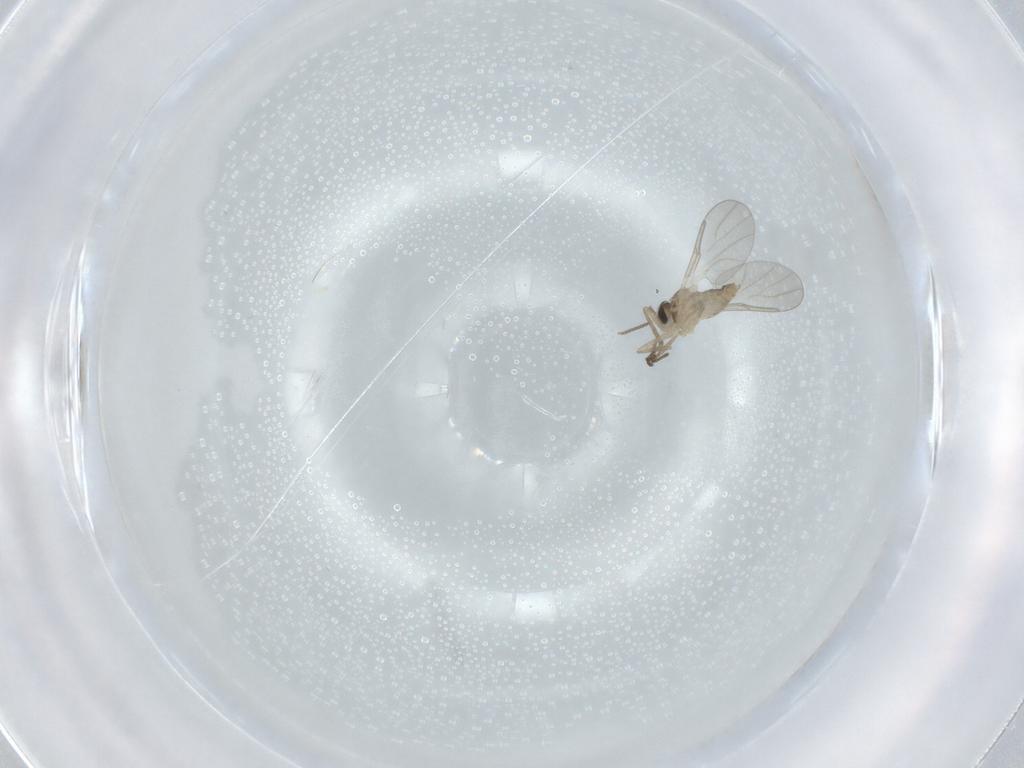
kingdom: Animalia
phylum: Arthropoda
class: Insecta
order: Diptera
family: Cecidomyiidae
